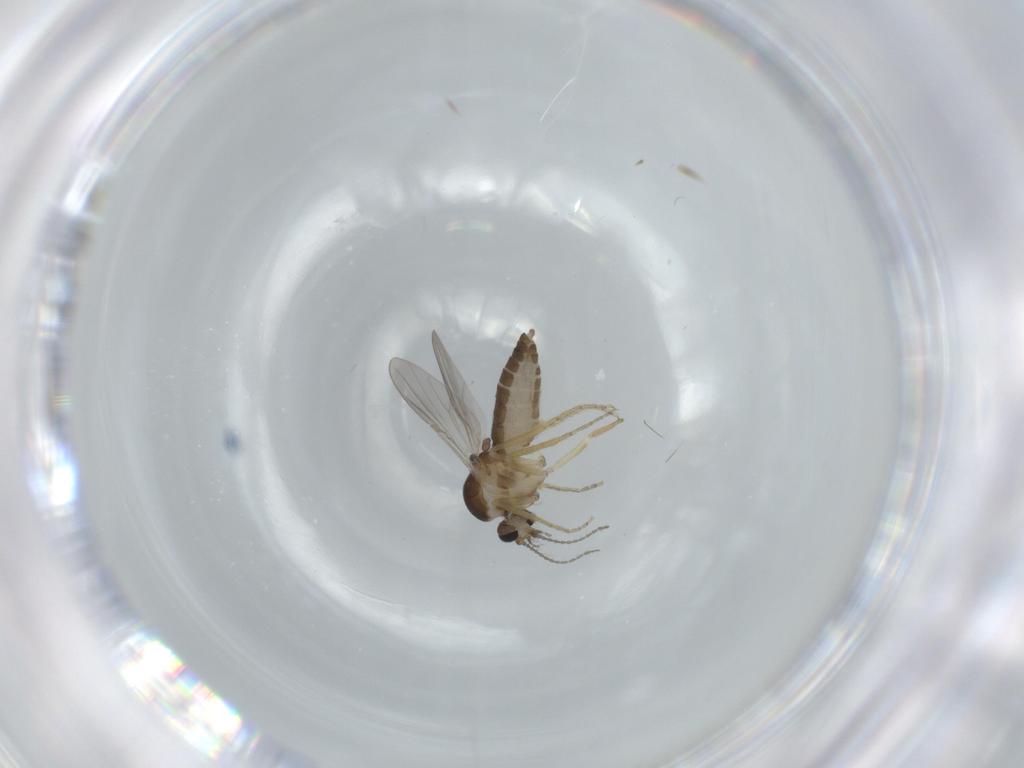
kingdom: Animalia
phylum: Arthropoda
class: Insecta
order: Diptera
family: Ceratopogonidae
